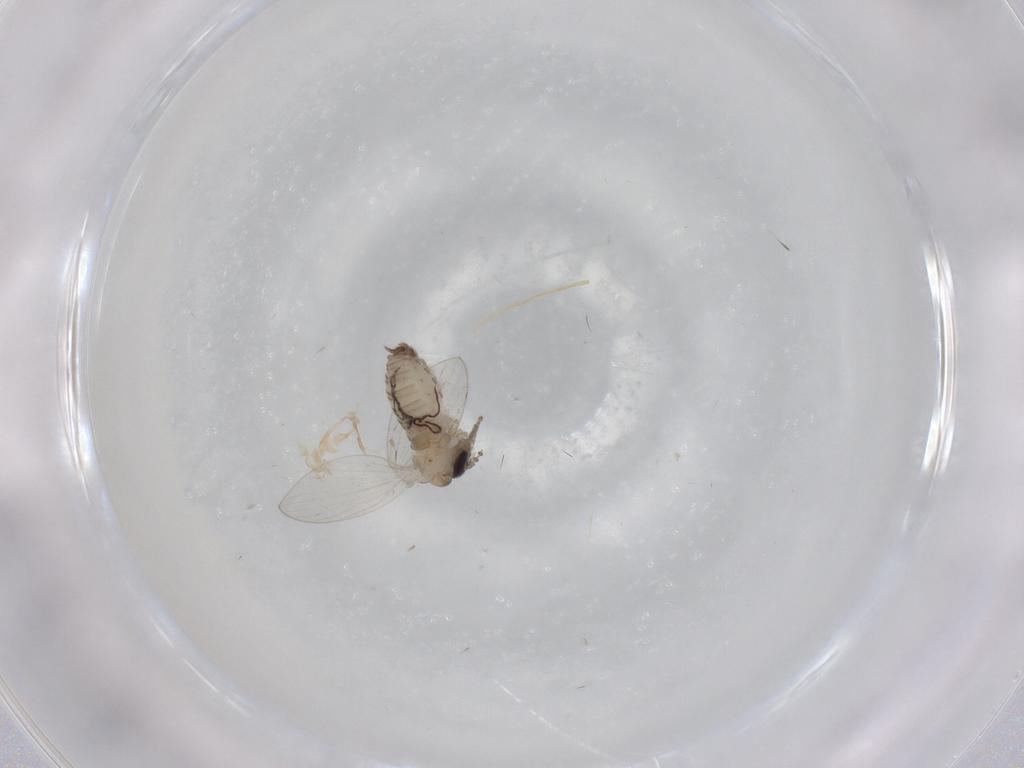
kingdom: Animalia
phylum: Arthropoda
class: Insecta
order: Diptera
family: Psychodidae
